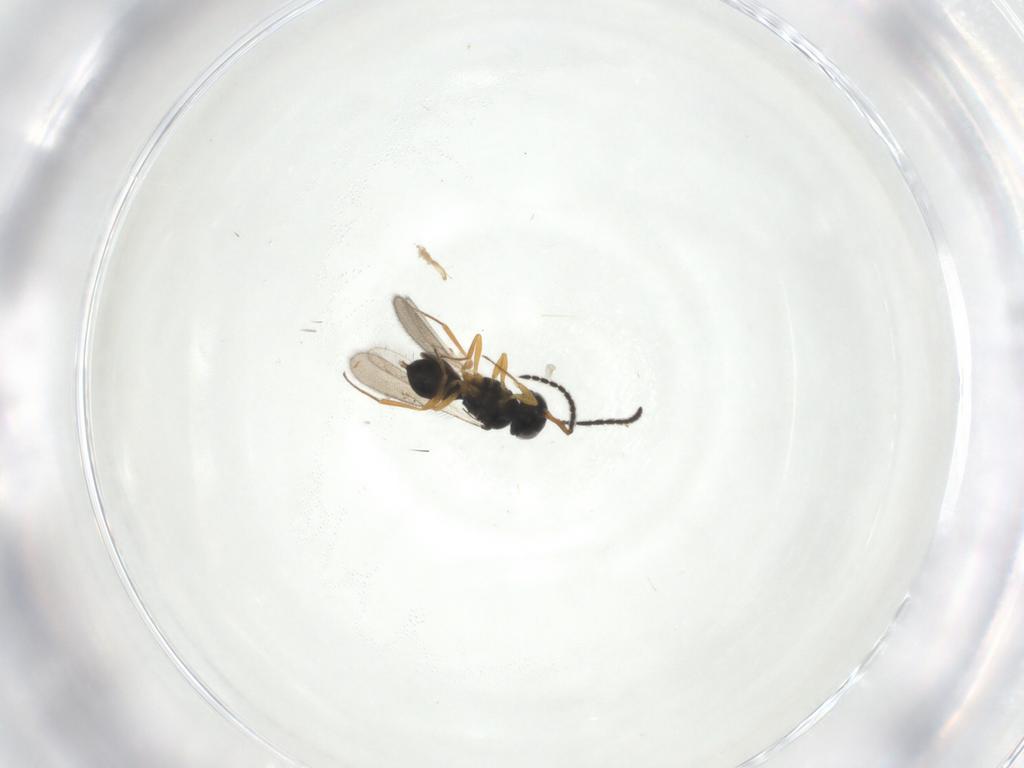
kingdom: Animalia
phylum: Arthropoda
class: Insecta
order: Hymenoptera
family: Scelionidae
